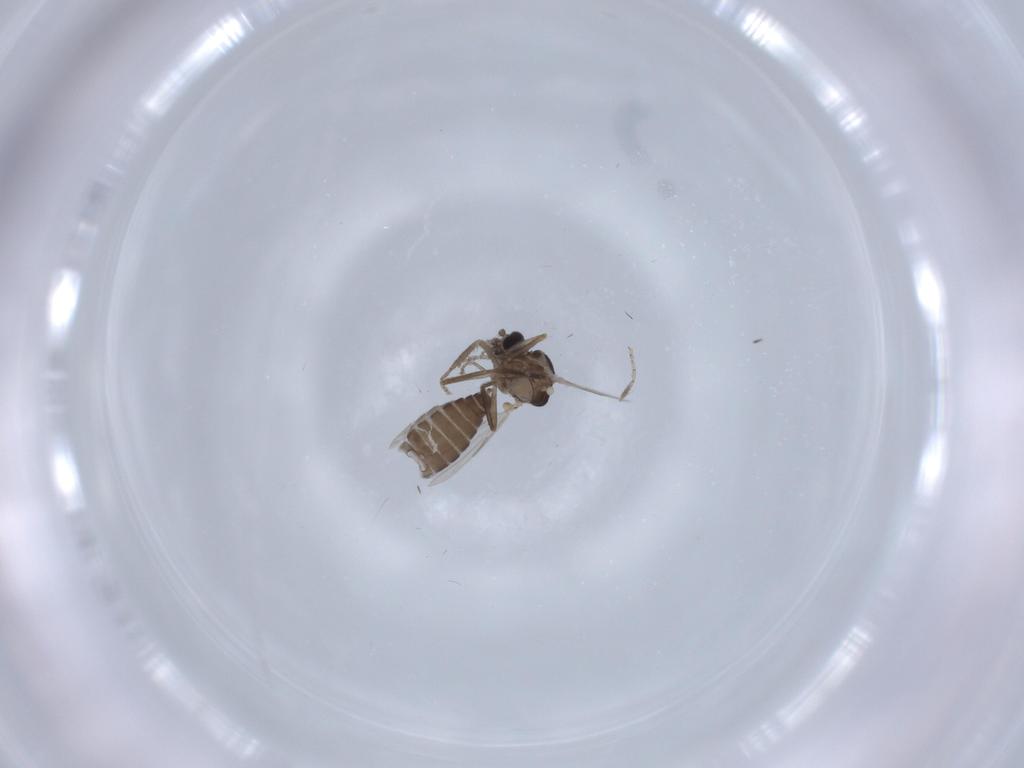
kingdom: Animalia
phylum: Arthropoda
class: Insecta
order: Diptera
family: Ceratopogonidae
